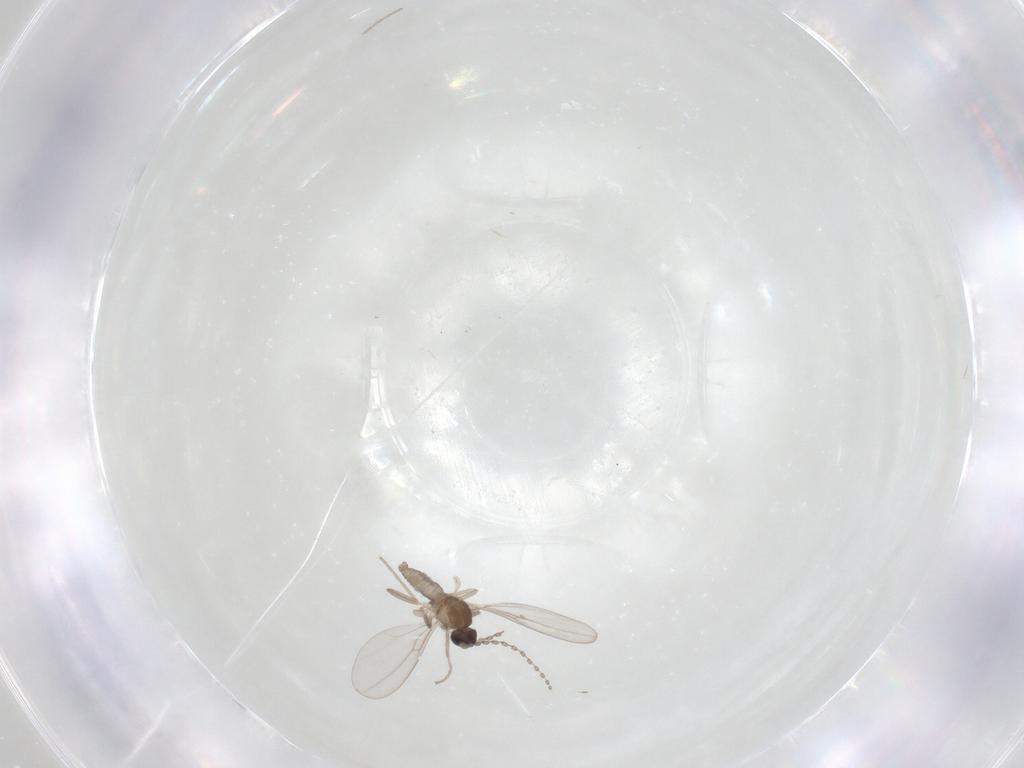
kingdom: Animalia
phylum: Arthropoda
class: Insecta
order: Diptera
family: Cecidomyiidae
